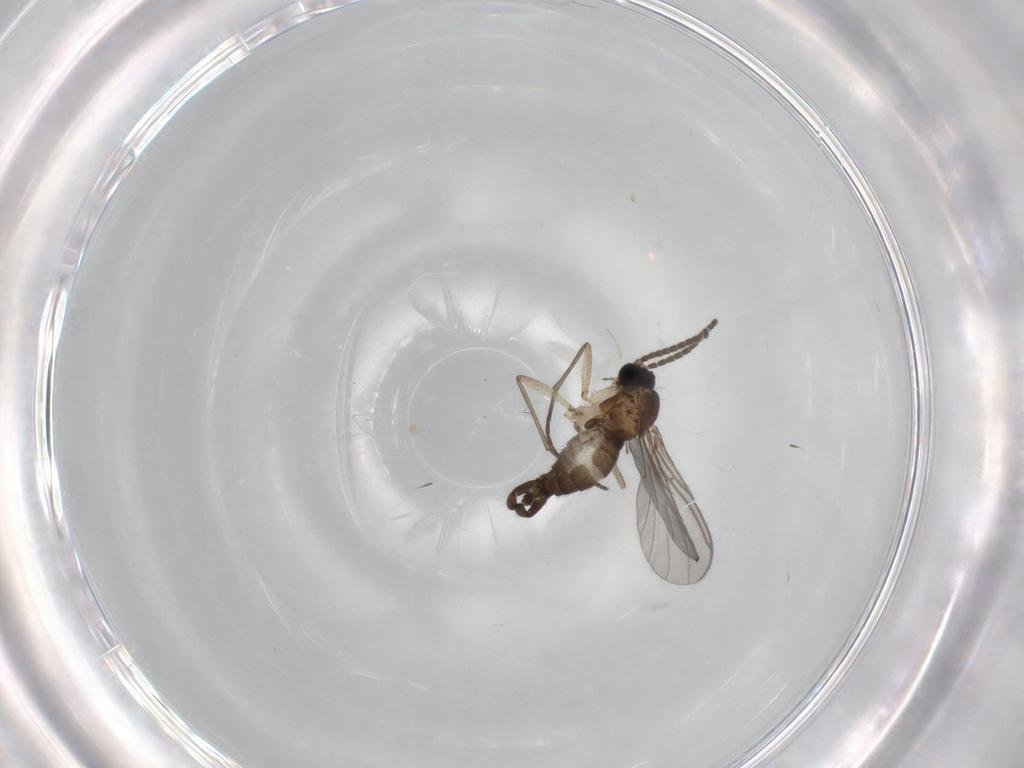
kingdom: Animalia
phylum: Arthropoda
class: Insecta
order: Diptera
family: Sciaridae
